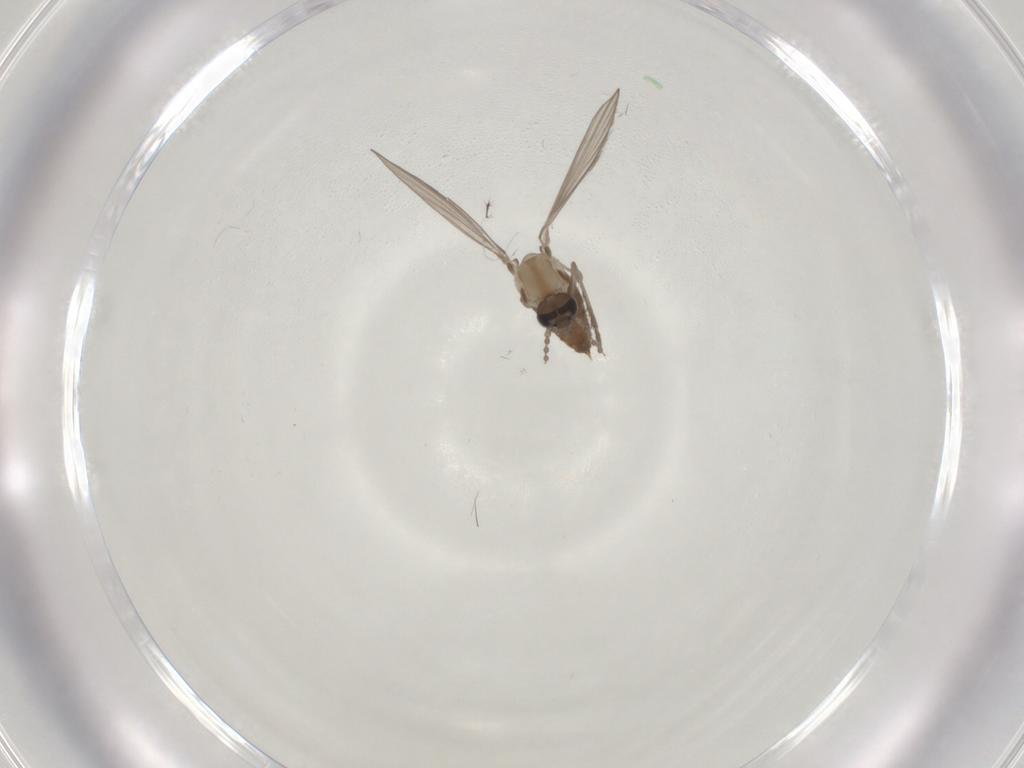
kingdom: Animalia
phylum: Arthropoda
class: Insecta
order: Diptera
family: Psychodidae
